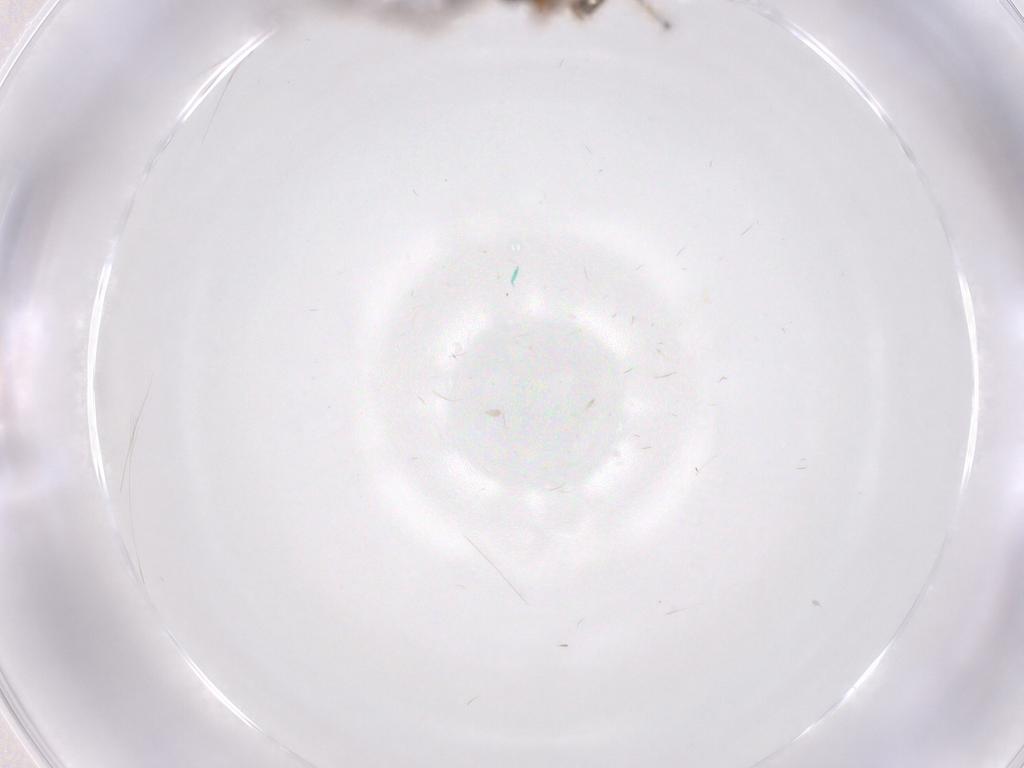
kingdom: Animalia
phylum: Arthropoda
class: Insecta
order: Hymenoptera
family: Diapriidae
